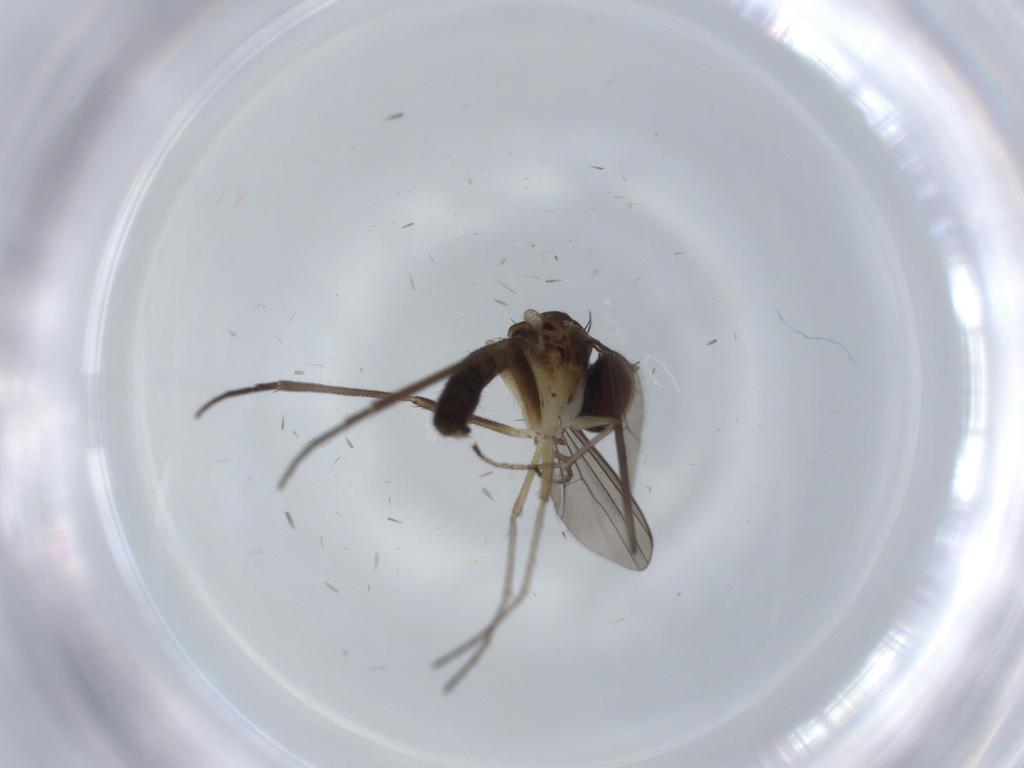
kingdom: Animalia
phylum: Arthropoda
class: Insecta
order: Diptera
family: Dolichopodidae
